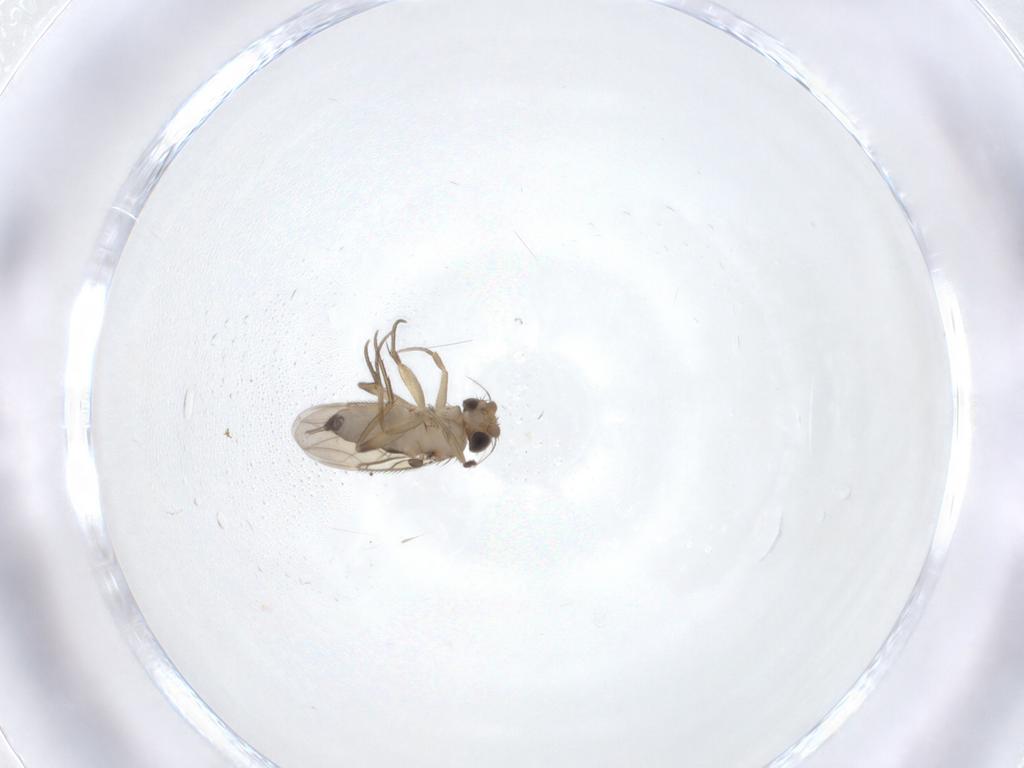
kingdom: Animalia
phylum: Arthropoda
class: Insecta
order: Diptera
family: Phoridae
